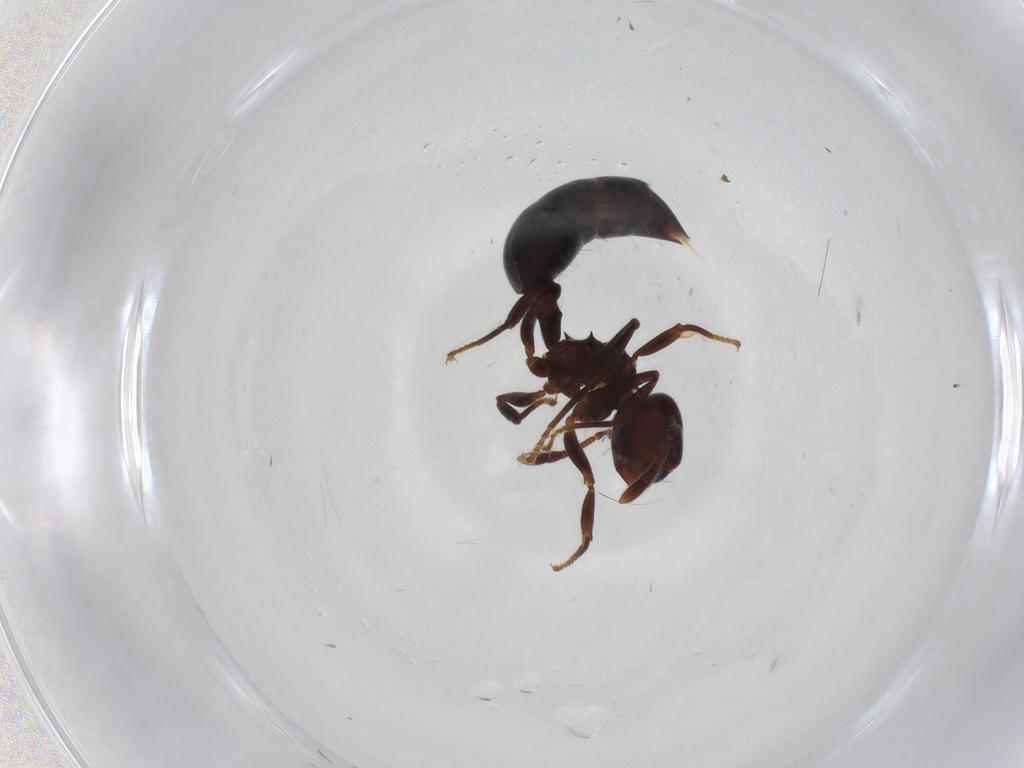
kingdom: Animalia
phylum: Arthropoda
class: Insecta
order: Hymenoptera
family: Formicidae
